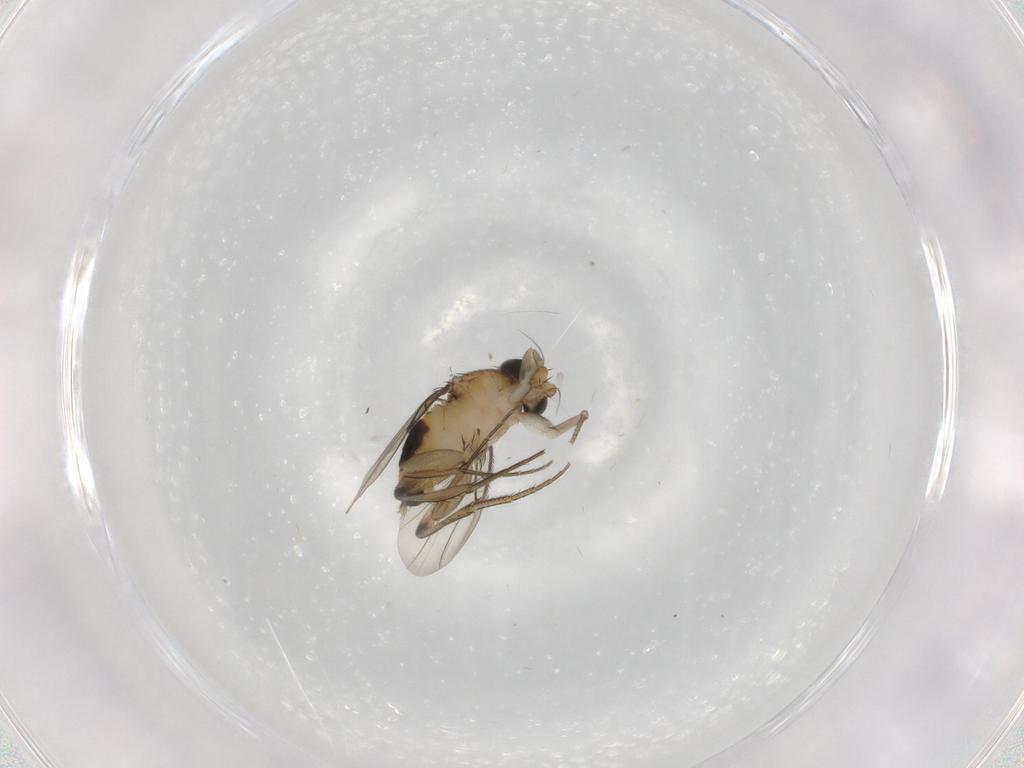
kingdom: Animalia
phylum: Arthropoda
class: Insecta
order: Diptera
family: Phoridae
